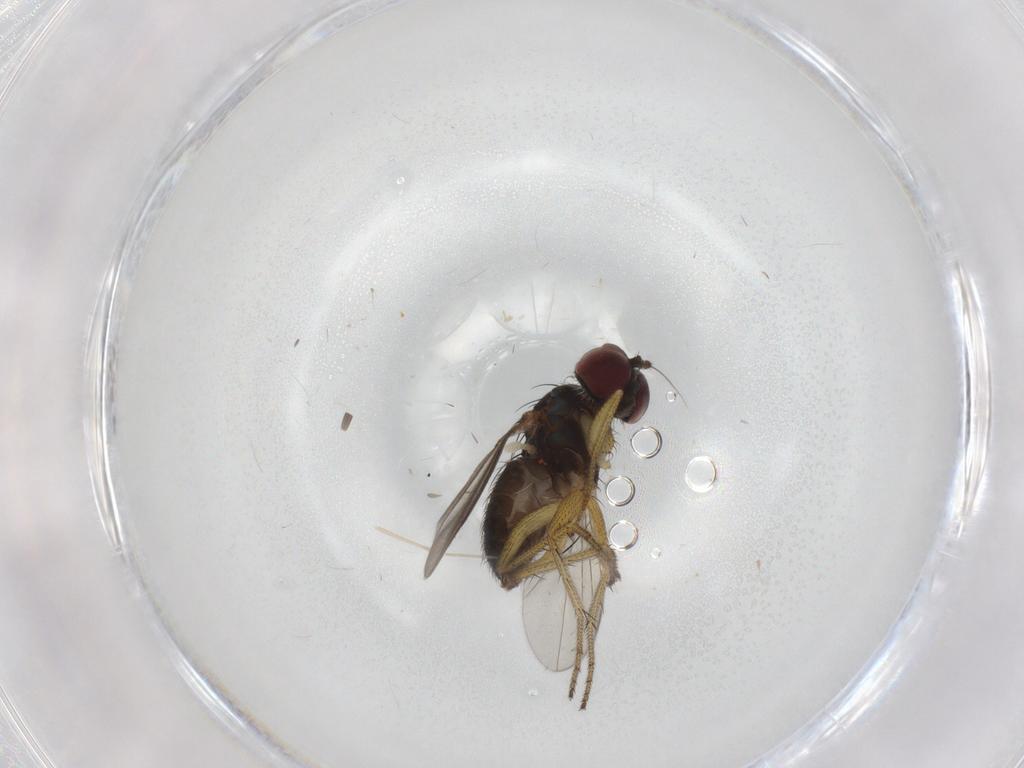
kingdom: Animalia
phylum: Arthropoda
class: Insecta
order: Diptera
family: Dolichopodidae
